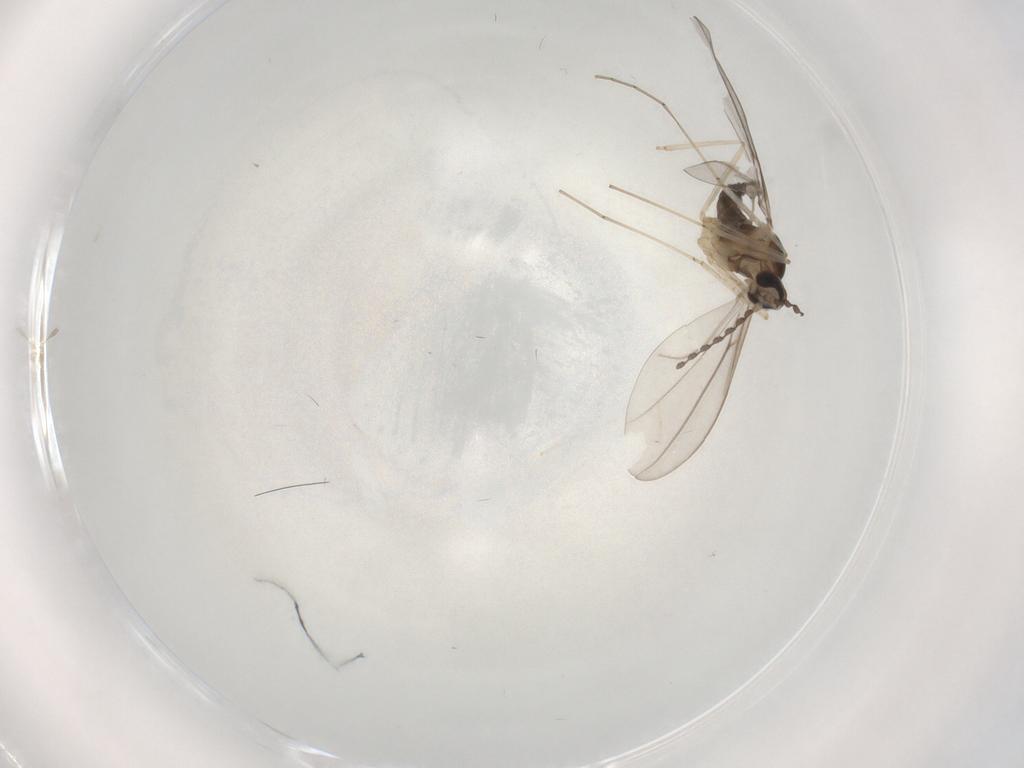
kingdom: Animalia
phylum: Arthropoda
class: Insecta
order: Diptera
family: Cecidomyiidae
